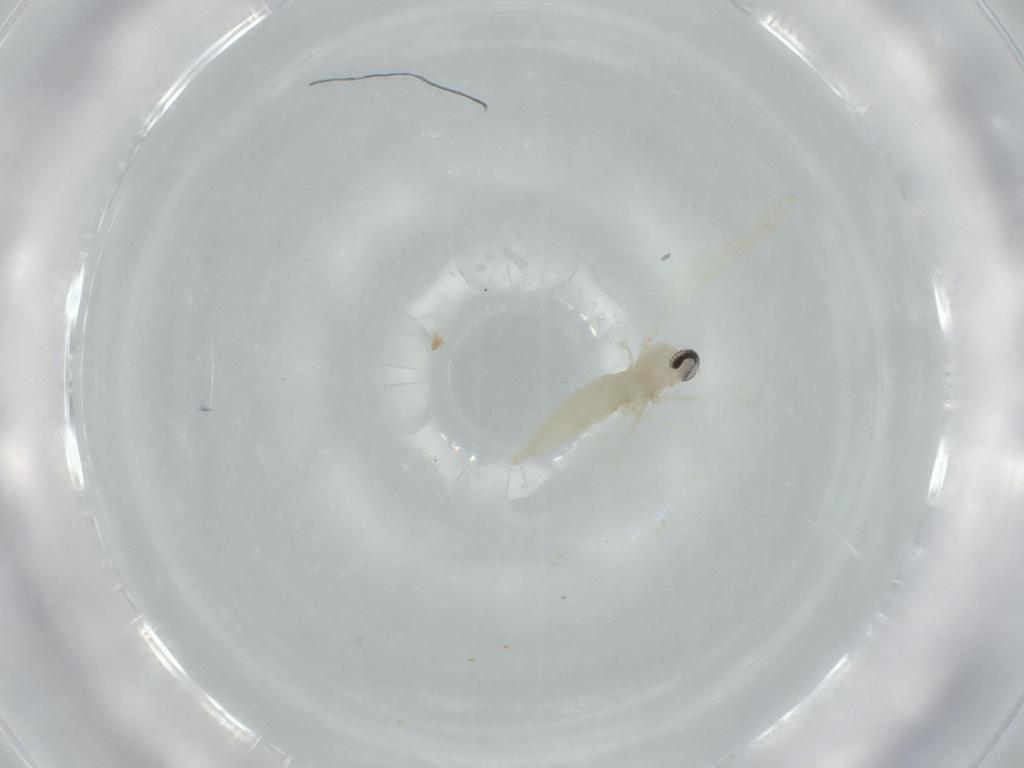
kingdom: Animalia
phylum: Arthropoda
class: Insecta
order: Diptera
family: Cecidomyiidae
